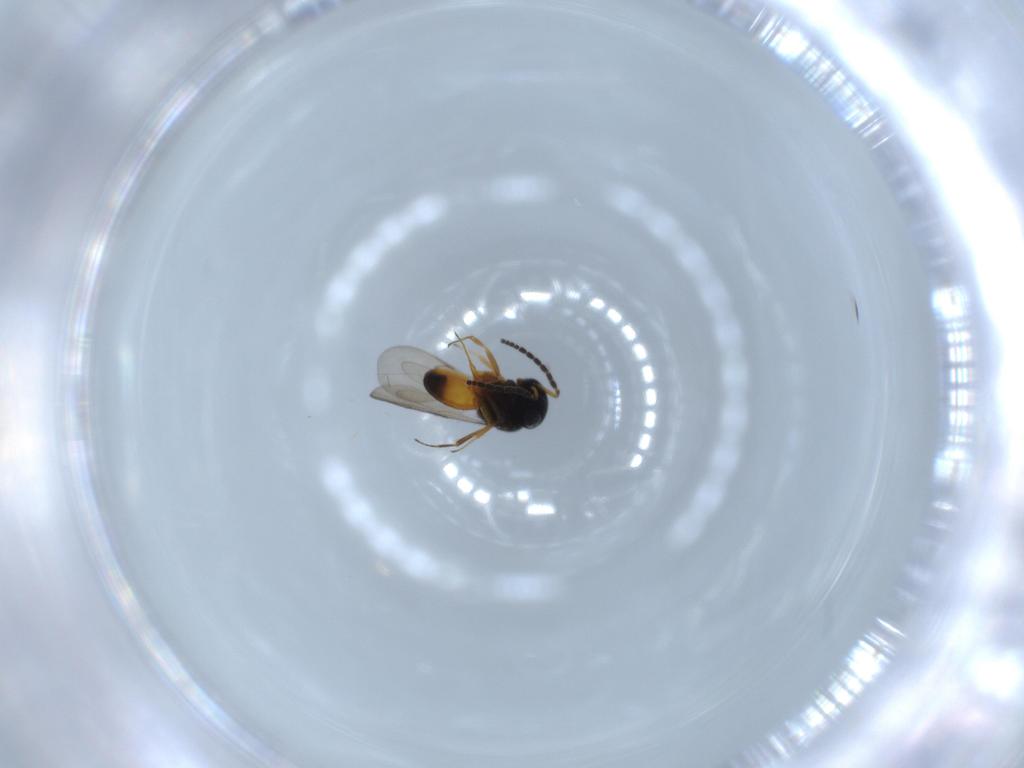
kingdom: Animalia
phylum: Arthropoda
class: Insecta
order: Hymenoptera
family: Scelionidae
